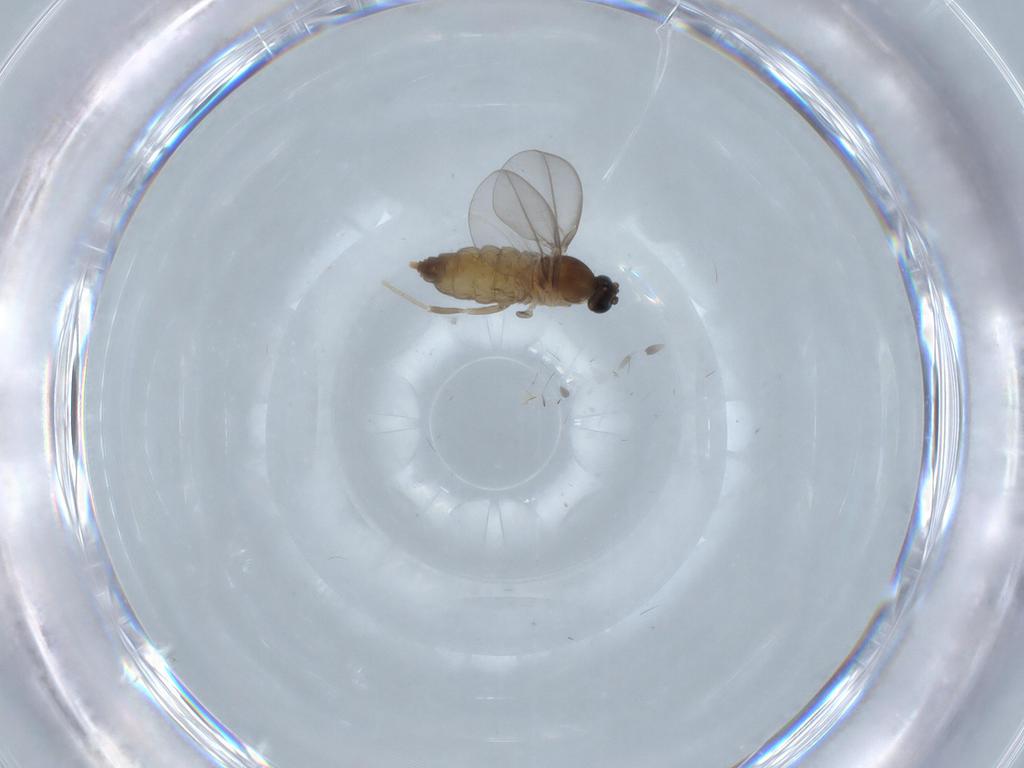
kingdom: Animalia
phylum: Arthropoda
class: Insecta
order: Diptera
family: Cecidomyiidae
